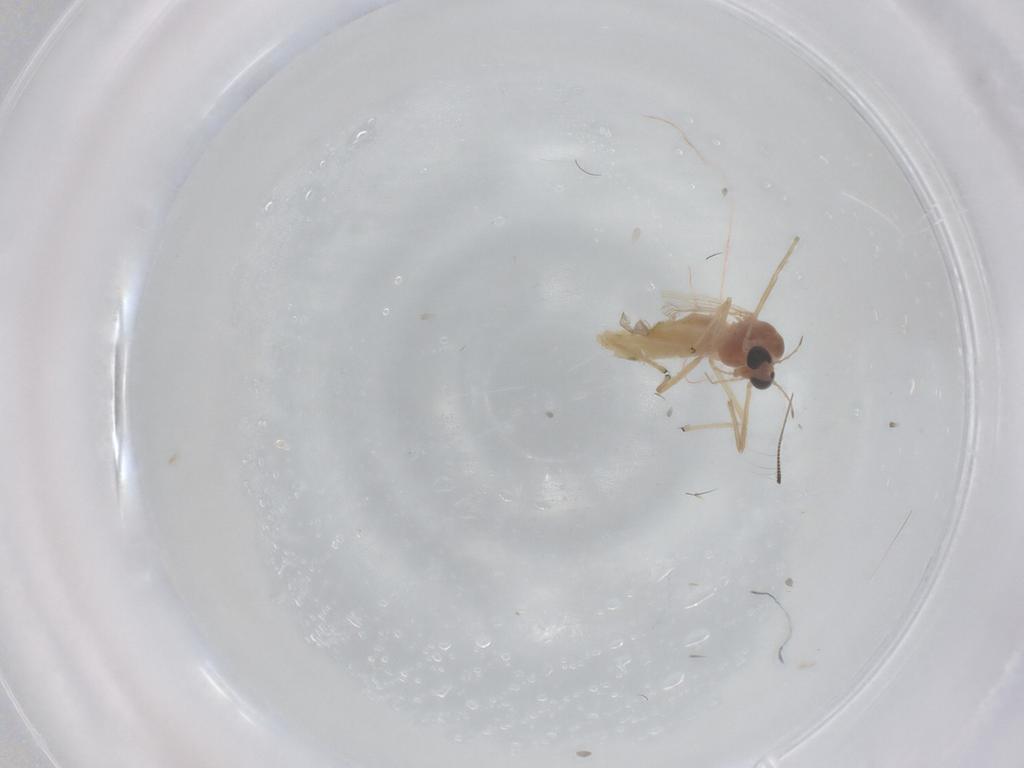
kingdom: Animalia
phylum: Arthropoda
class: Insecta
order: Diptera
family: Chironomidae
